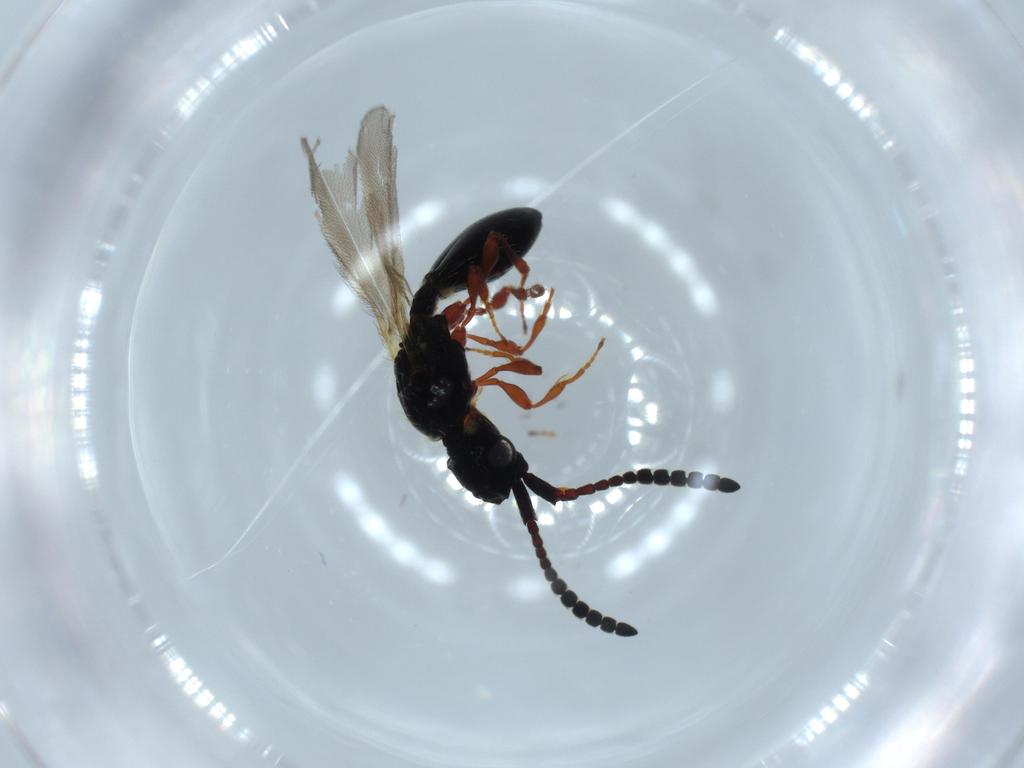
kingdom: Animalia
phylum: Arthropoda
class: Insecta
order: Hymenoptera
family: Diapriidae
